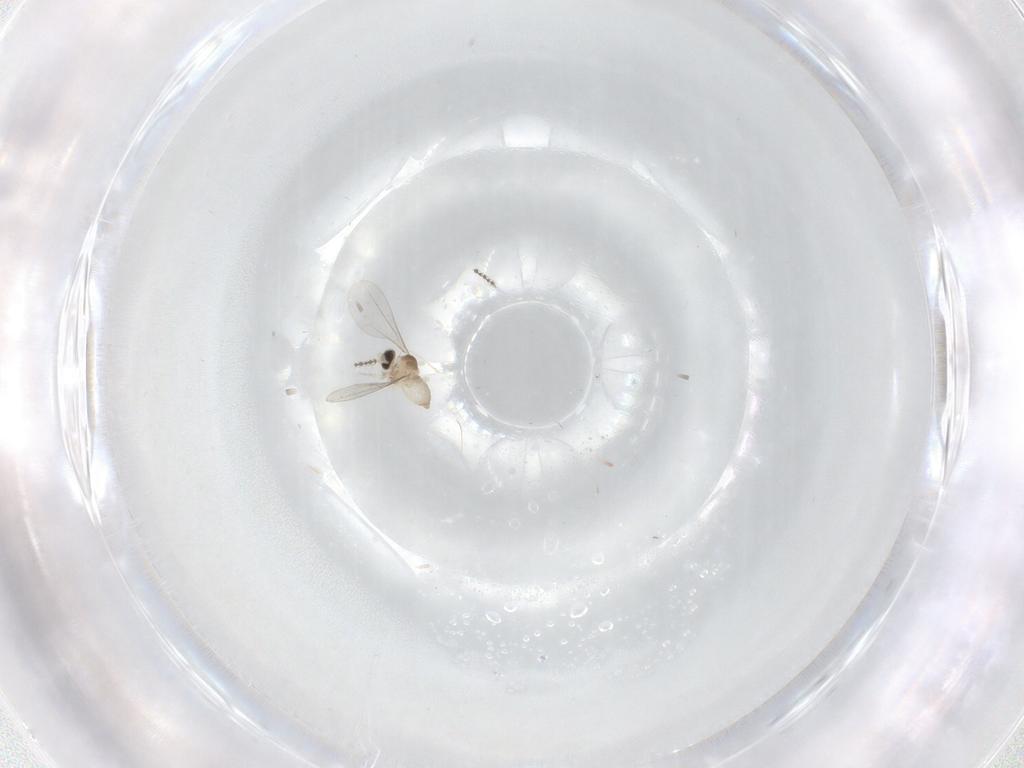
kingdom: Animalia
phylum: Arthropoda
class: Insecta
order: Diptera
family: Cecidomyiidae
